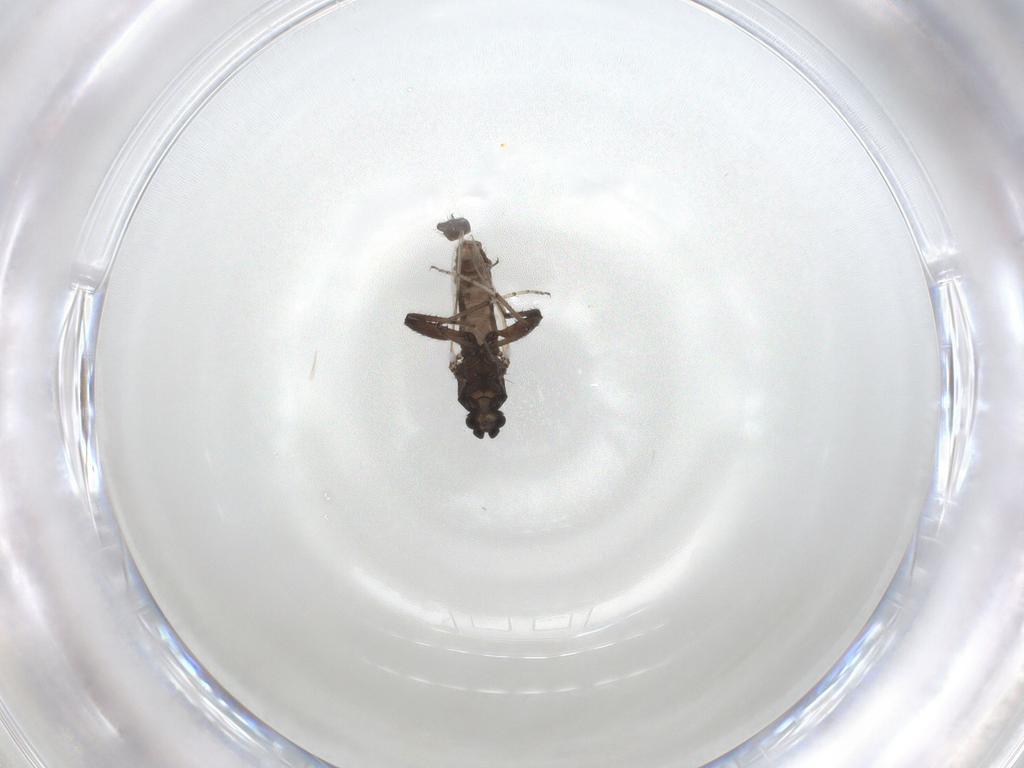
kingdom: Animalia
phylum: Arthropoda
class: Insecta
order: Diptera
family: Ceratopogonidae
